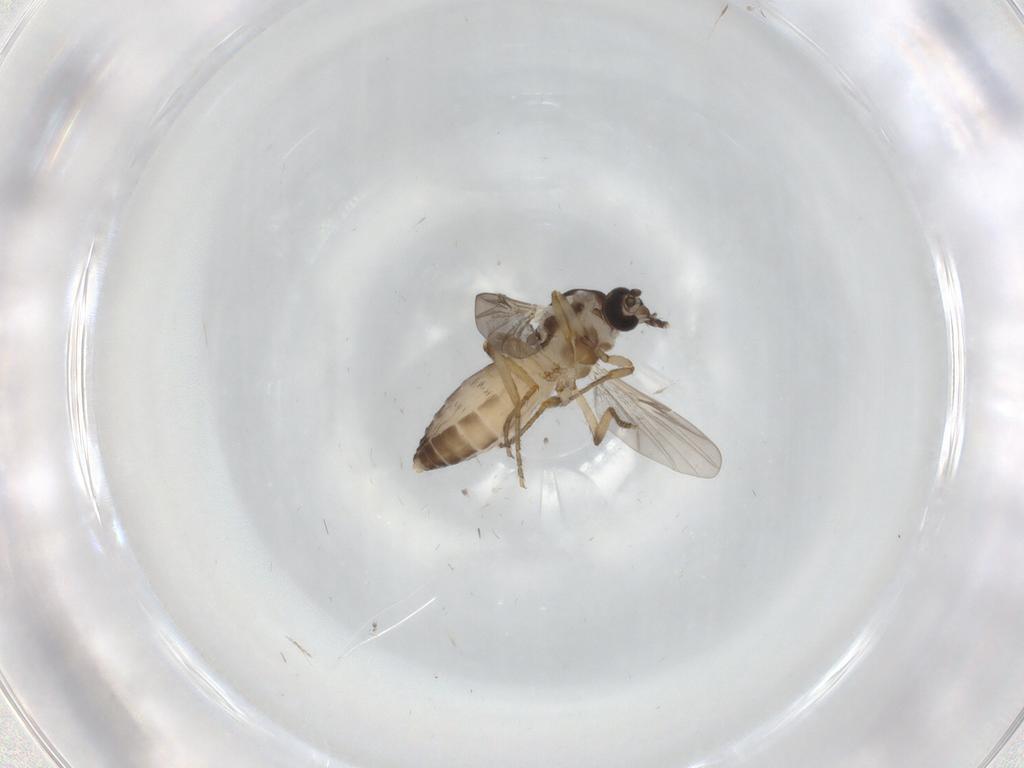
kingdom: Animalia
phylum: Arthropoda
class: Insecta
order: Diptera
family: Ceratopogonidae
